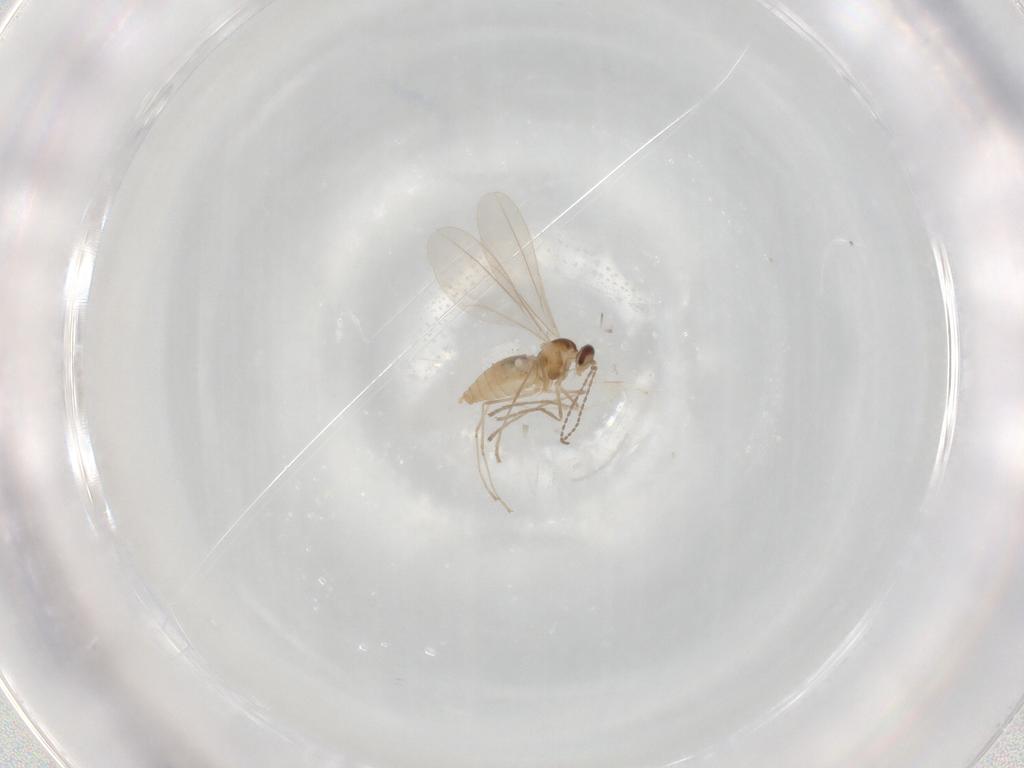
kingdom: Animalia
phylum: Arthropoda
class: Insecta
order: Diptera
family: Cecidomyiidae
